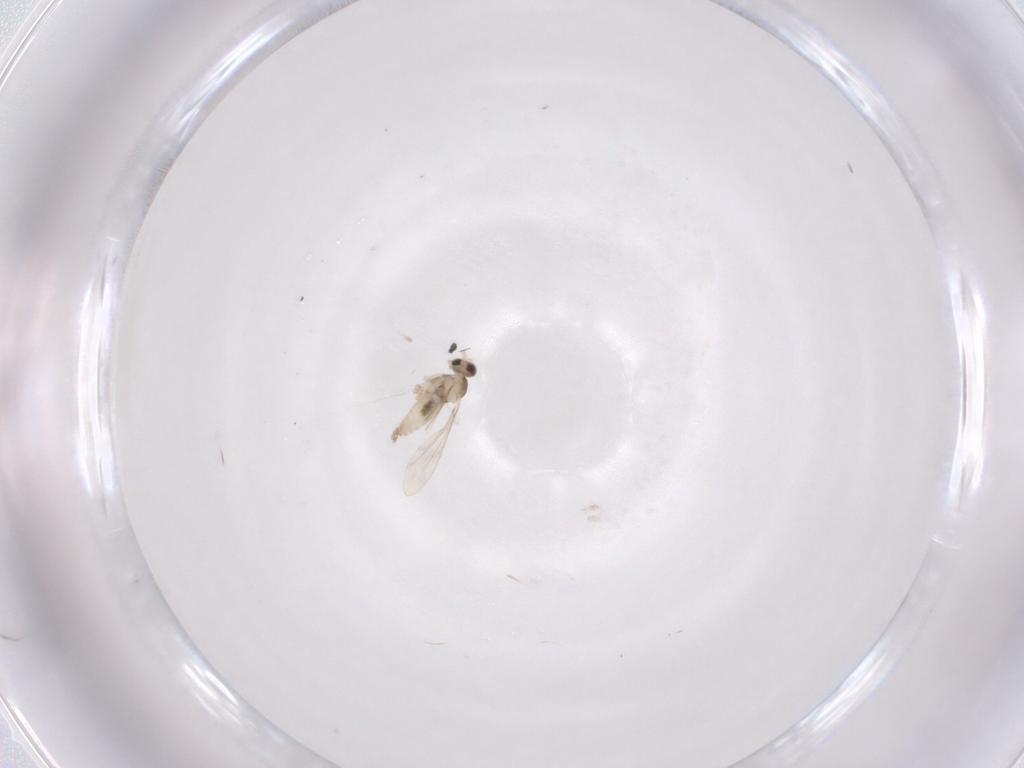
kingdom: Animalia
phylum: Arthropoda
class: Insecta
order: Diptera
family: Cecidomyiidae
